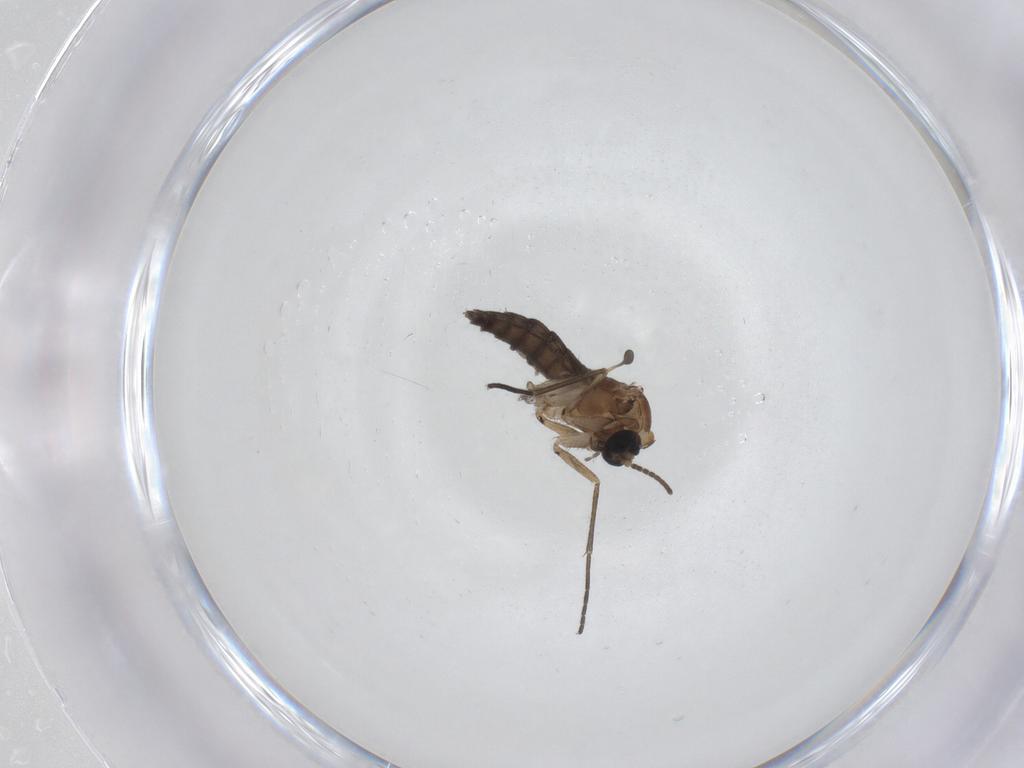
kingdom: Animalia
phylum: Arthropoda
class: Insecta
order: Diptera
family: Limoniidae
